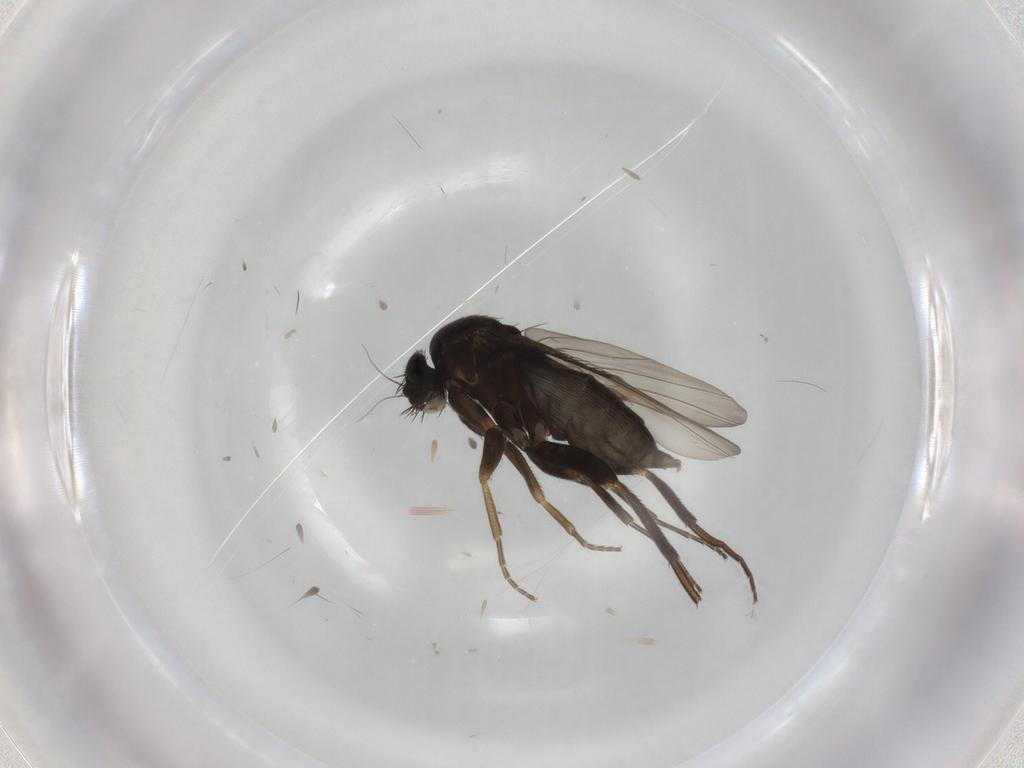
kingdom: Animalia
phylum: Arthropoda
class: Insecta
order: Diptera
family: Phoridae
